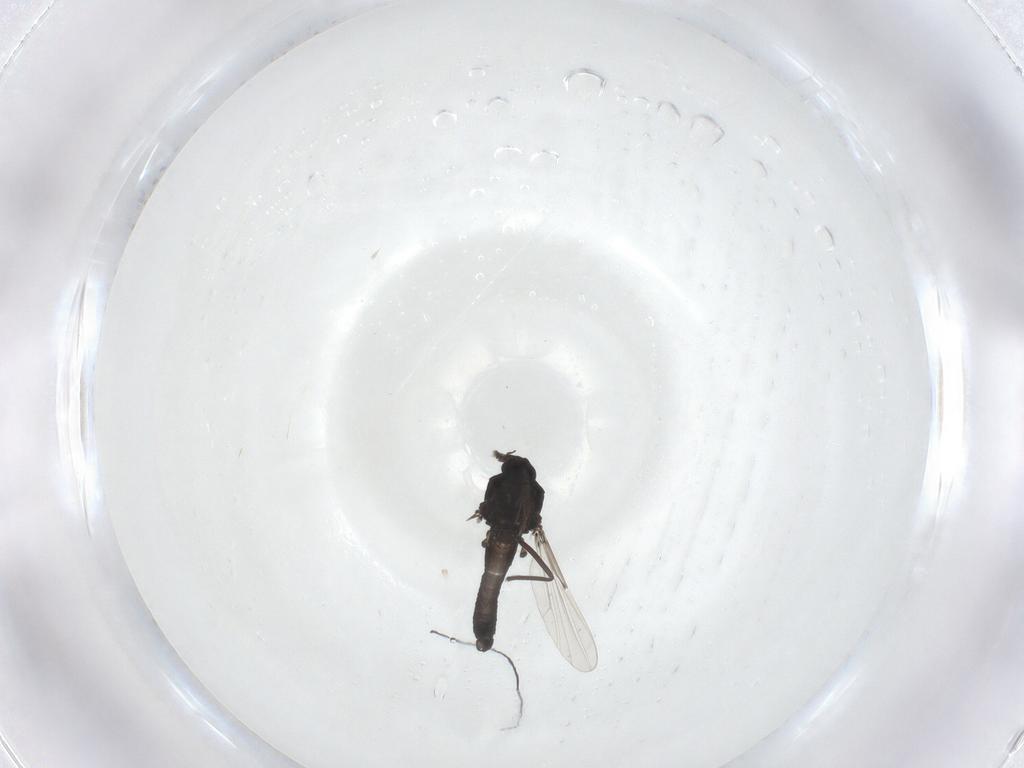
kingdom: Animalia
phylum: Arthropoda
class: Insecta
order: Diptera
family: Ceratopogonidae
